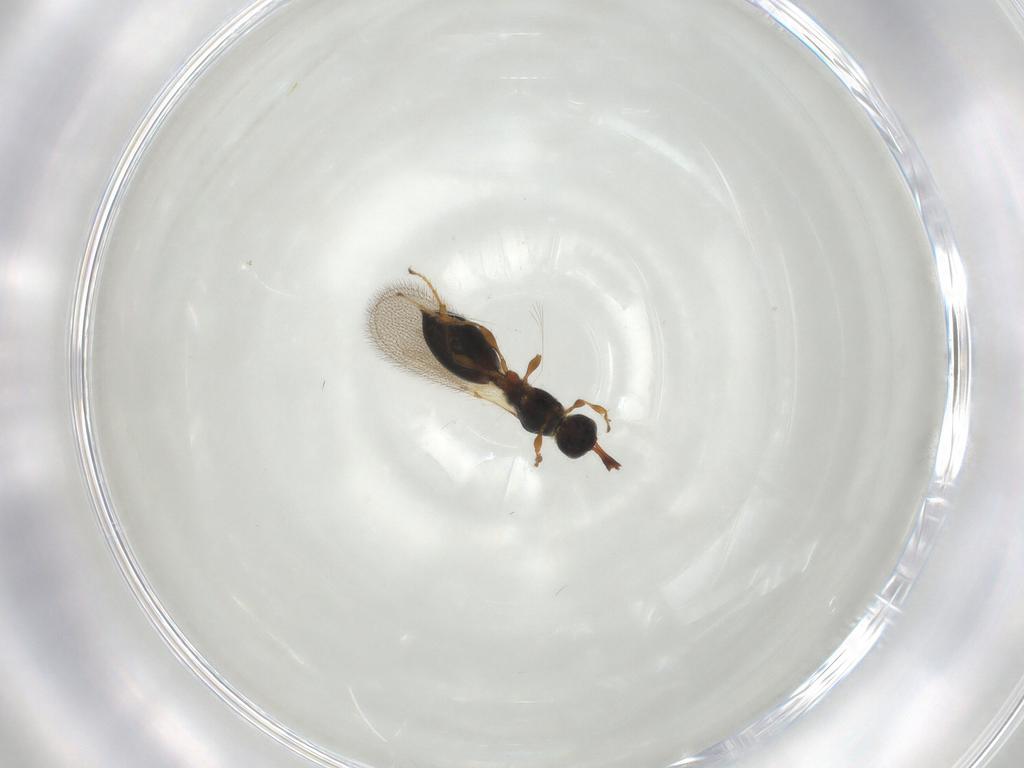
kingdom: Animalia
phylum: Arthropoda
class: Insecta
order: Hymenoptera
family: Diapriidae
